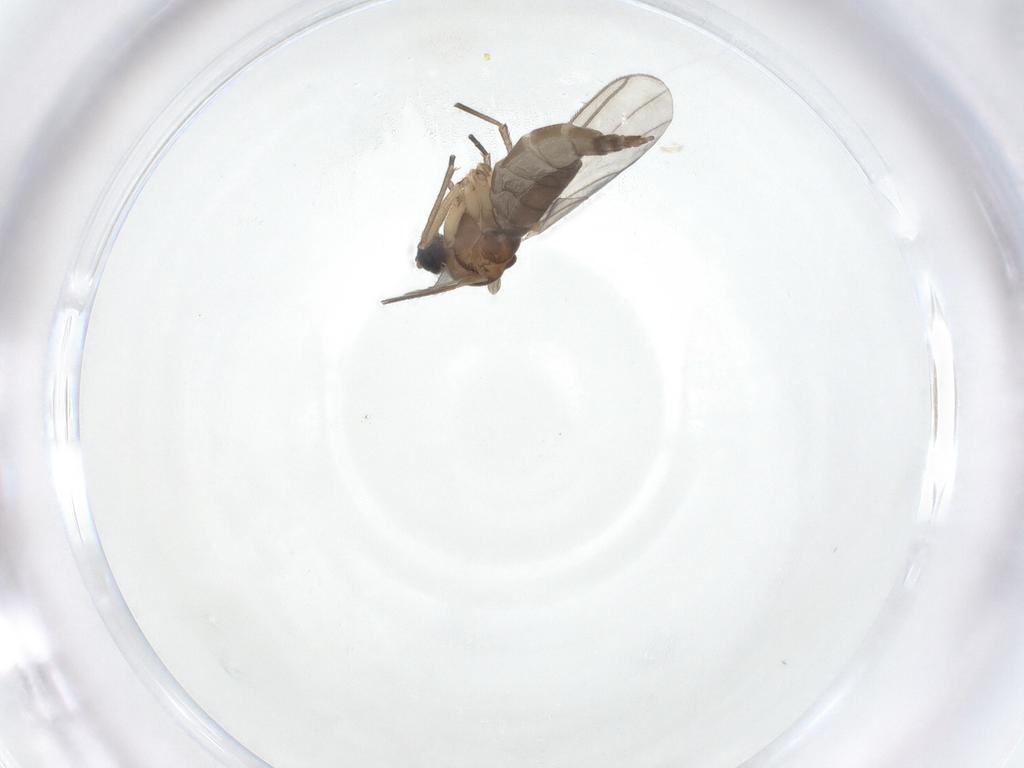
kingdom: Animalia
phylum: Arthropoda
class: Insecta
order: Diptera
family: Sciaridae
